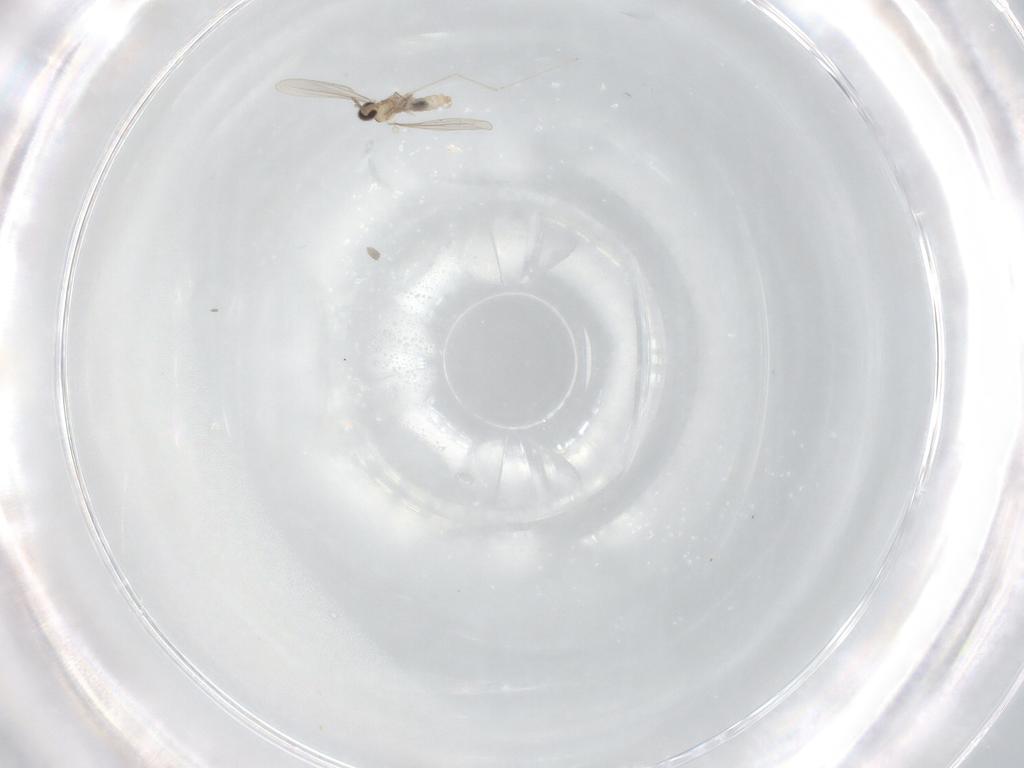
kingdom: Animalia
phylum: Arthropoda
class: Insecta
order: Diptera
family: Cecidomyiidae
